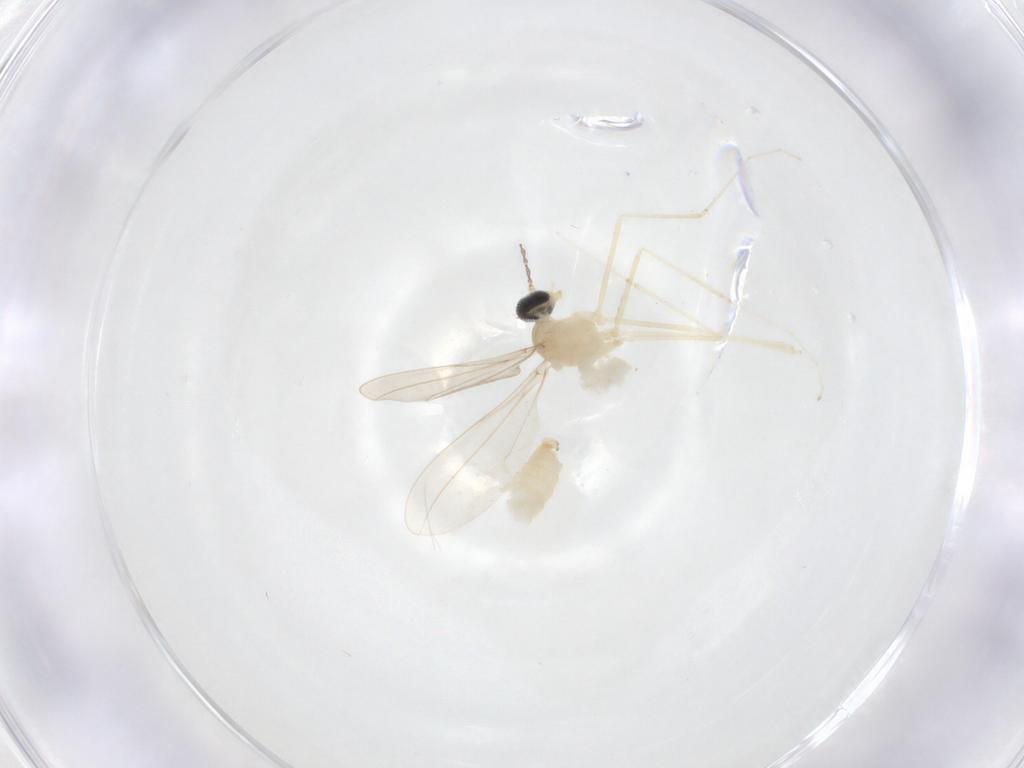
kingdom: Animalia
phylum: Arthropoda
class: Insecta
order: Diptera
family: Cecidomyiidae
